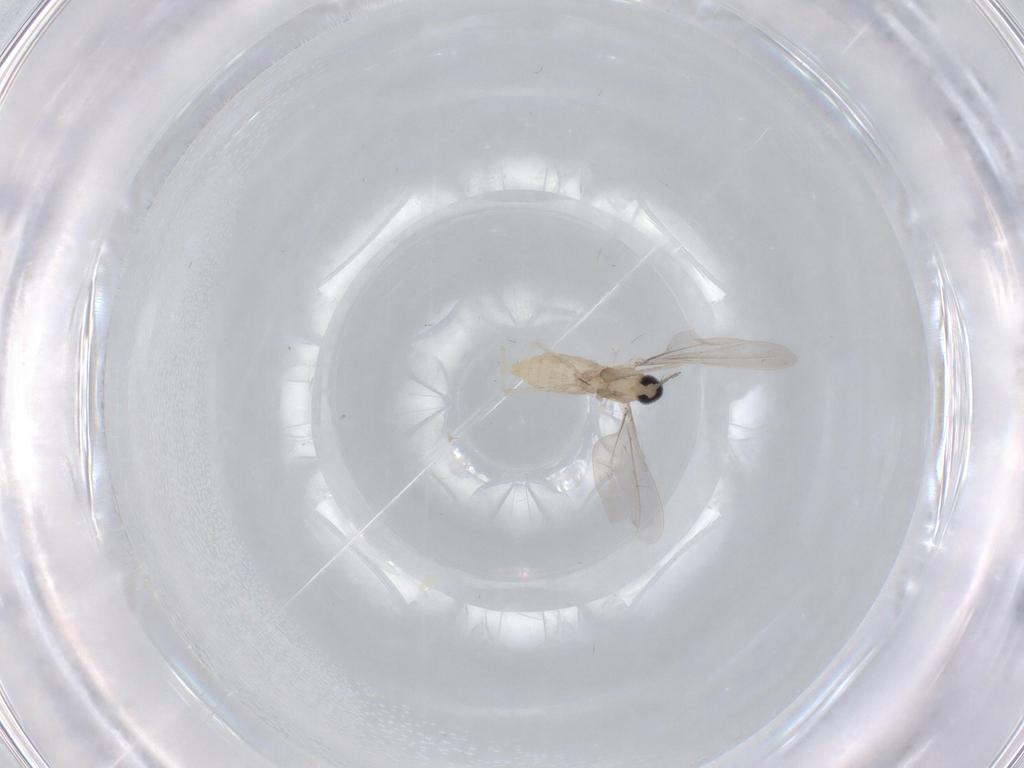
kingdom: Animalia
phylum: Arthropoda
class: Insecta
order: Diptera
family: Cecidomyiidae
